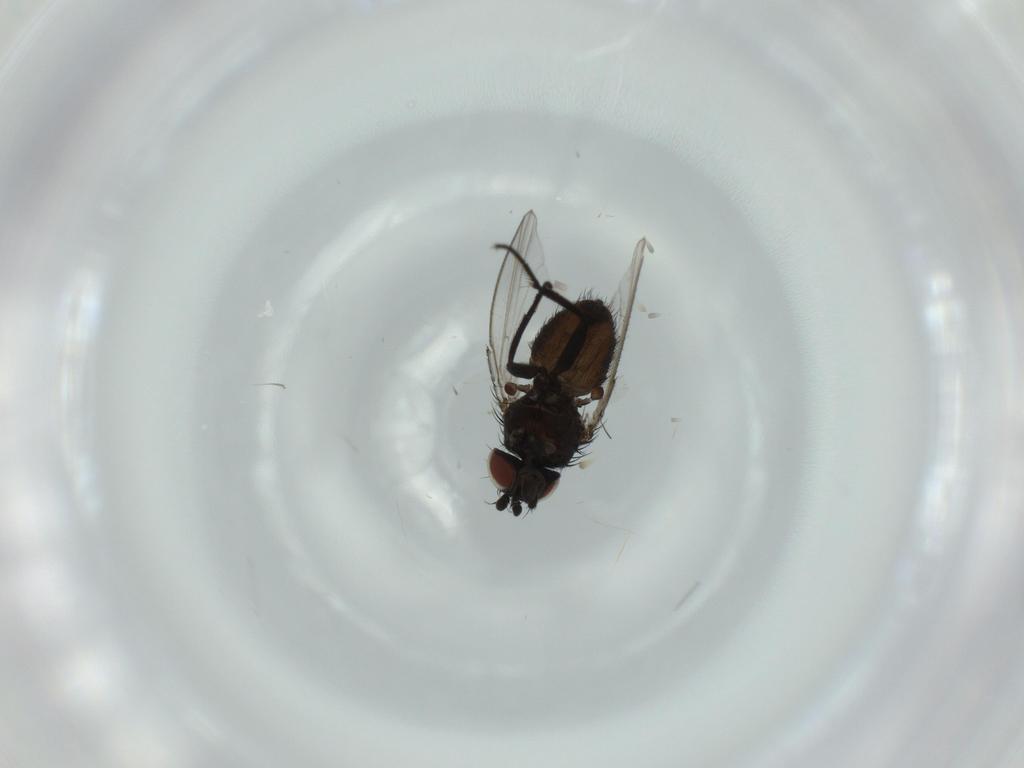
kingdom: Animalia
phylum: Arthropoda
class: Insecta
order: Diptera
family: Sciaridae
